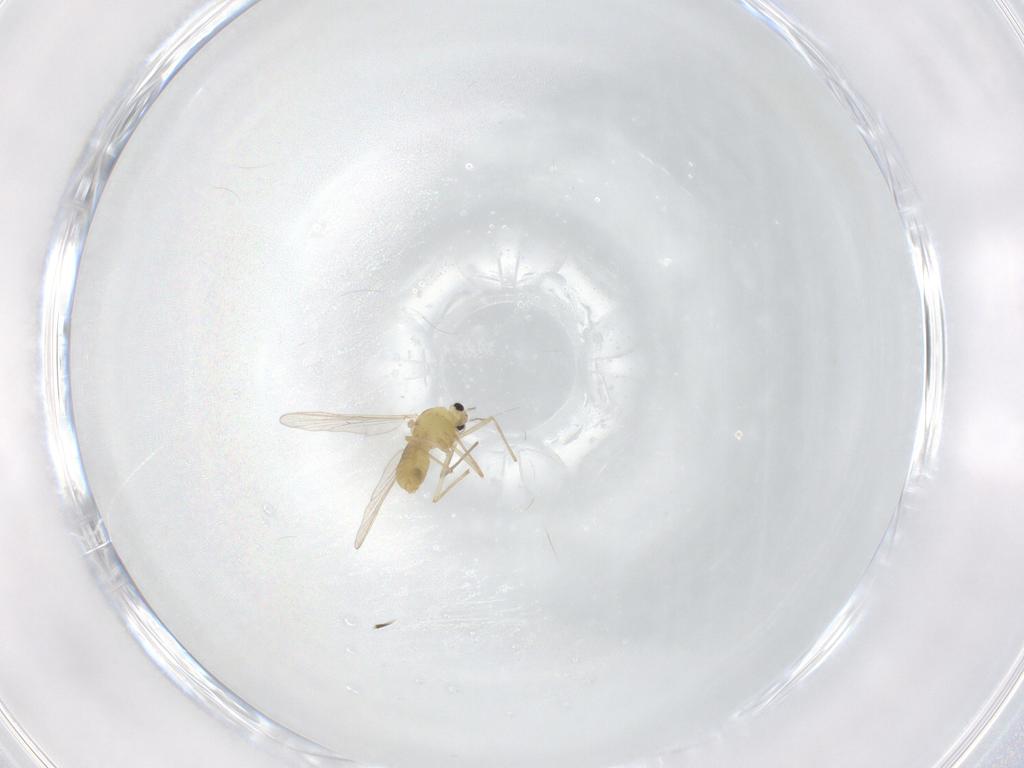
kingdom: Animalia
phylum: Arthropoda
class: Insecta
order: Diptera
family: Chironomidae
